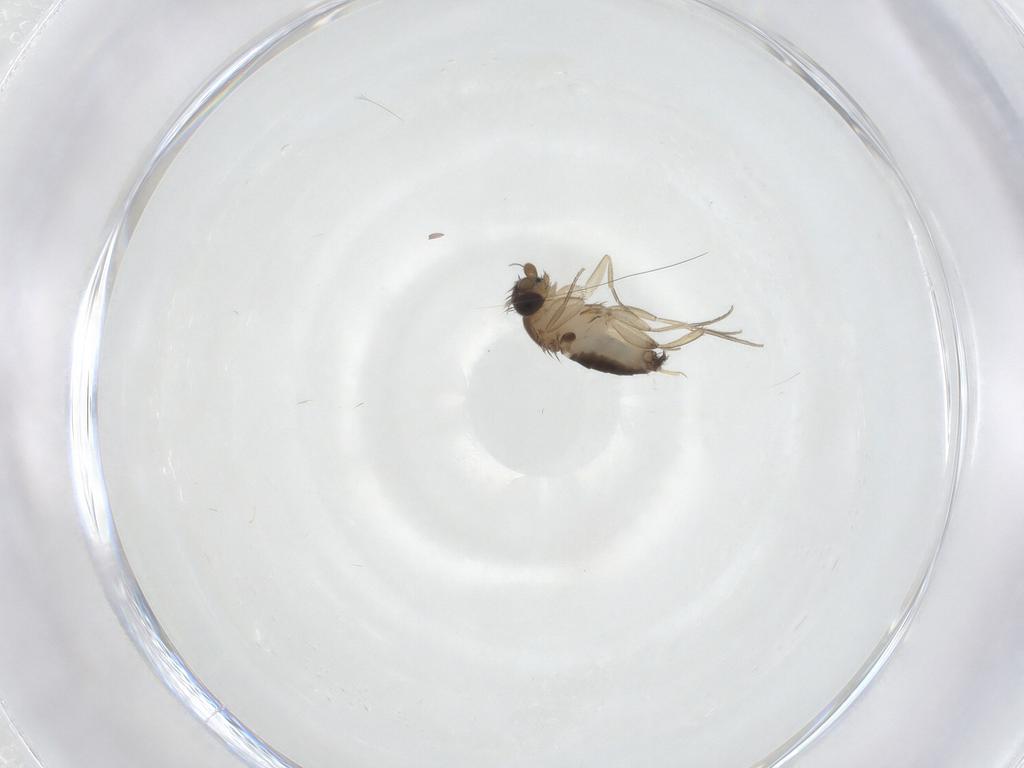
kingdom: Animalia
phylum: Arthropoda
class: Insecta
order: Diptera
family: Phoridae
